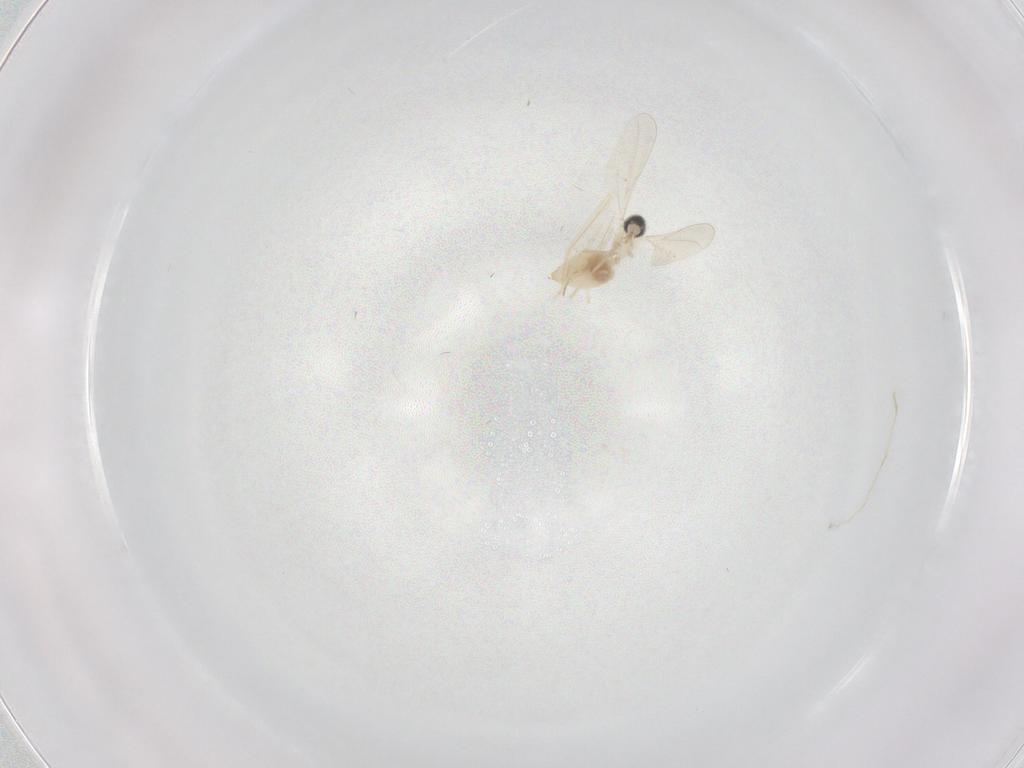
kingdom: Animalia
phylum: Arthropoda
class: Insecta
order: Diptera
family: Cecidomyiidae
